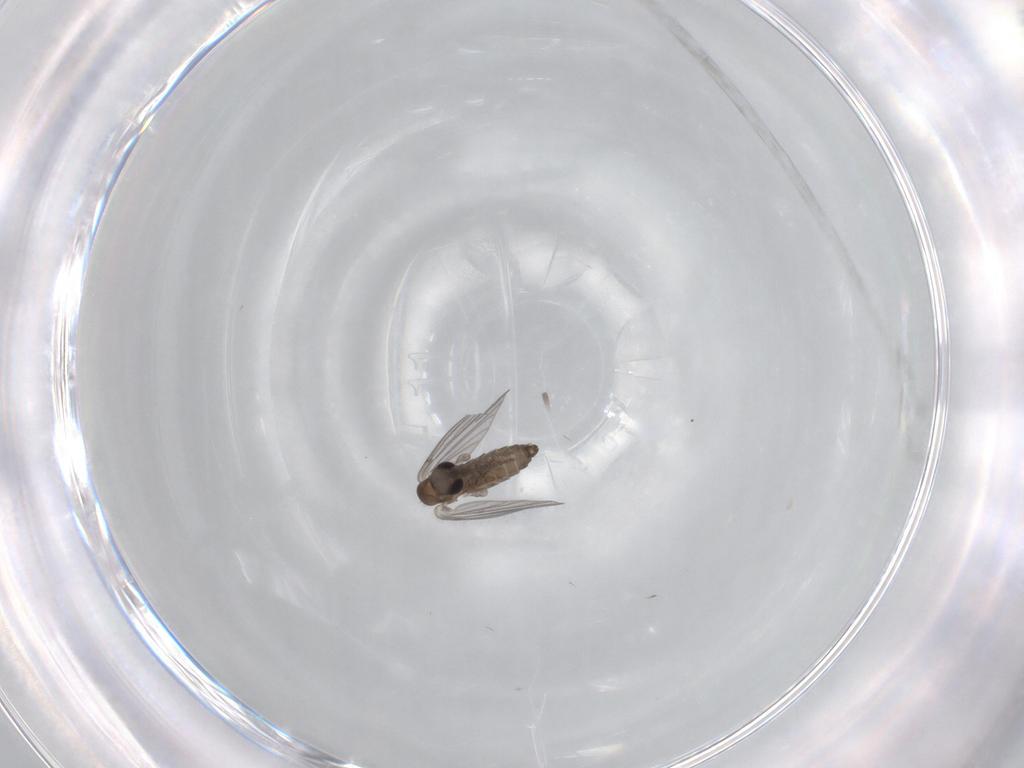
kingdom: Animalia
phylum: Arthropoda
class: Insecta
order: Diptera
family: Psychodidae
